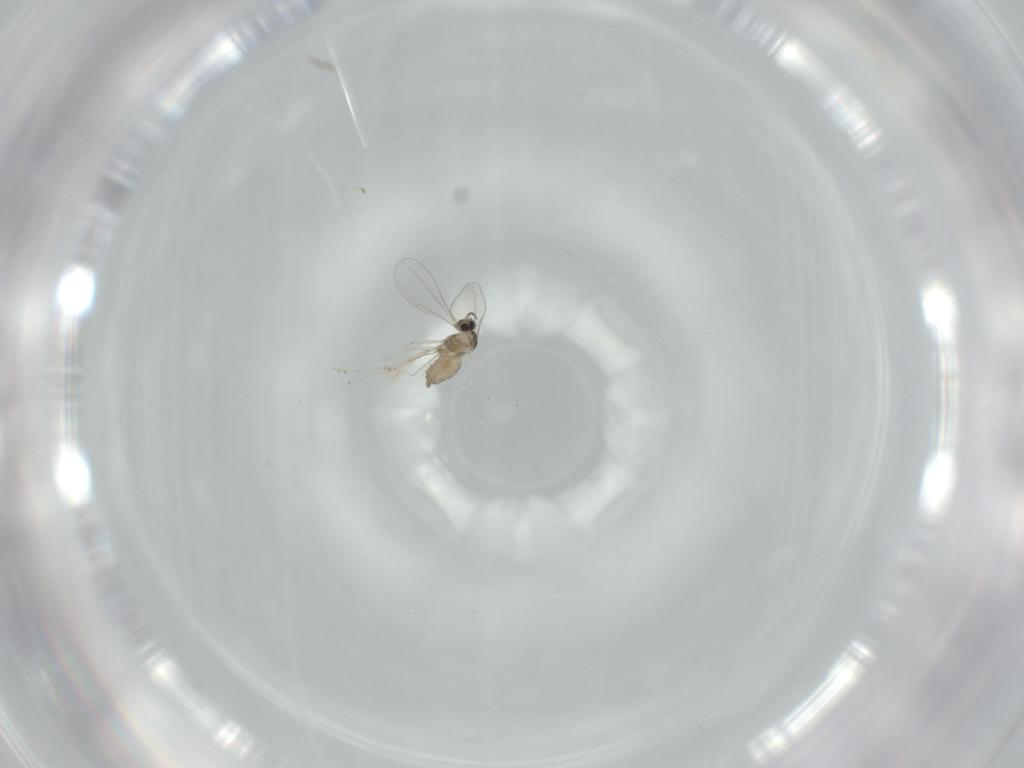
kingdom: Animalia
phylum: Arthropoda
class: Insecta
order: Diptera
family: Cecidomyiidae
